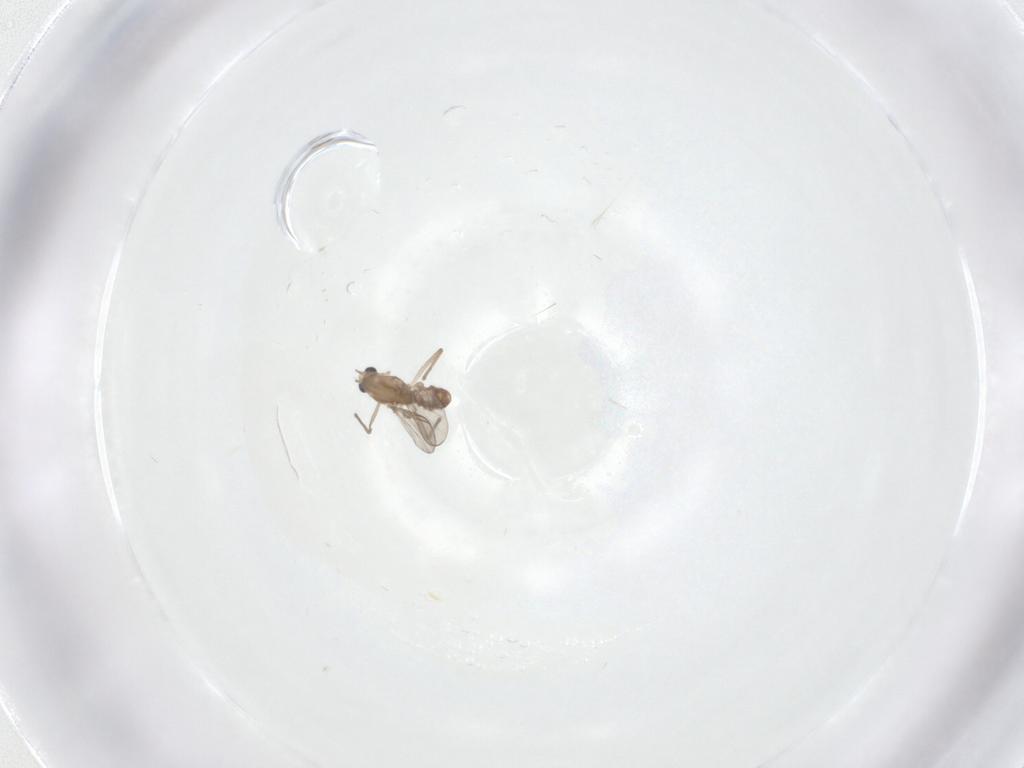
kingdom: Animalia
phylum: Arthropoda
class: Insecta
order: Diptera
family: Chironomidae
